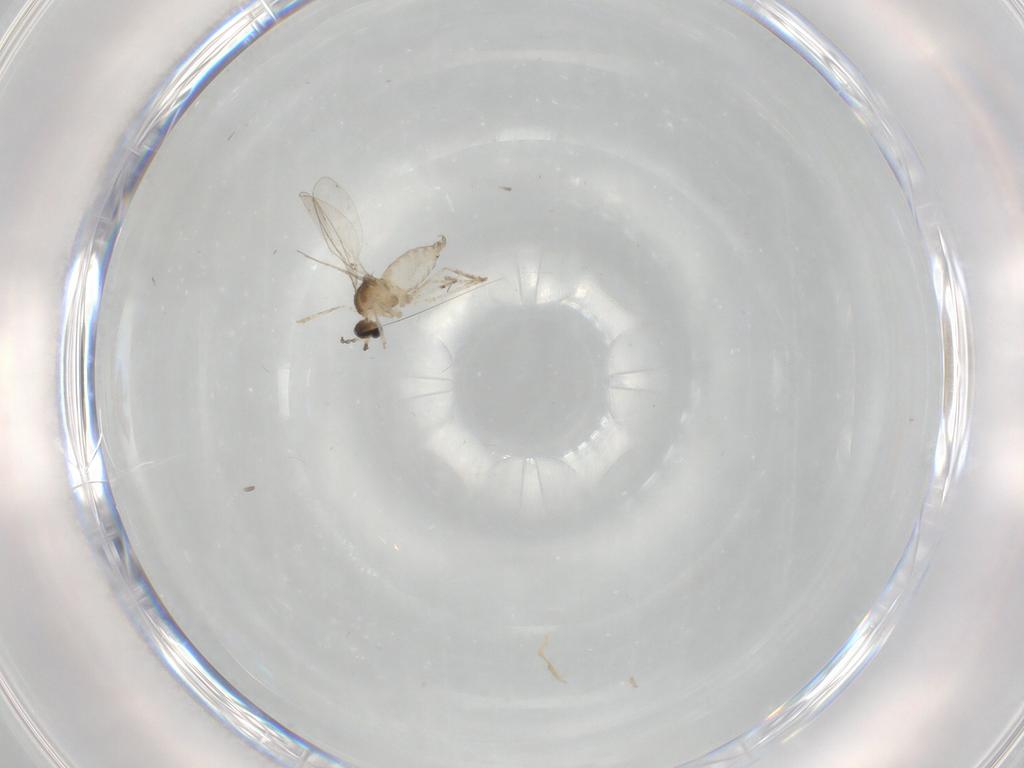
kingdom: Animalia
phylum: Arthropoda
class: Insecta
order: Diptera
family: Cecidomyiidae
